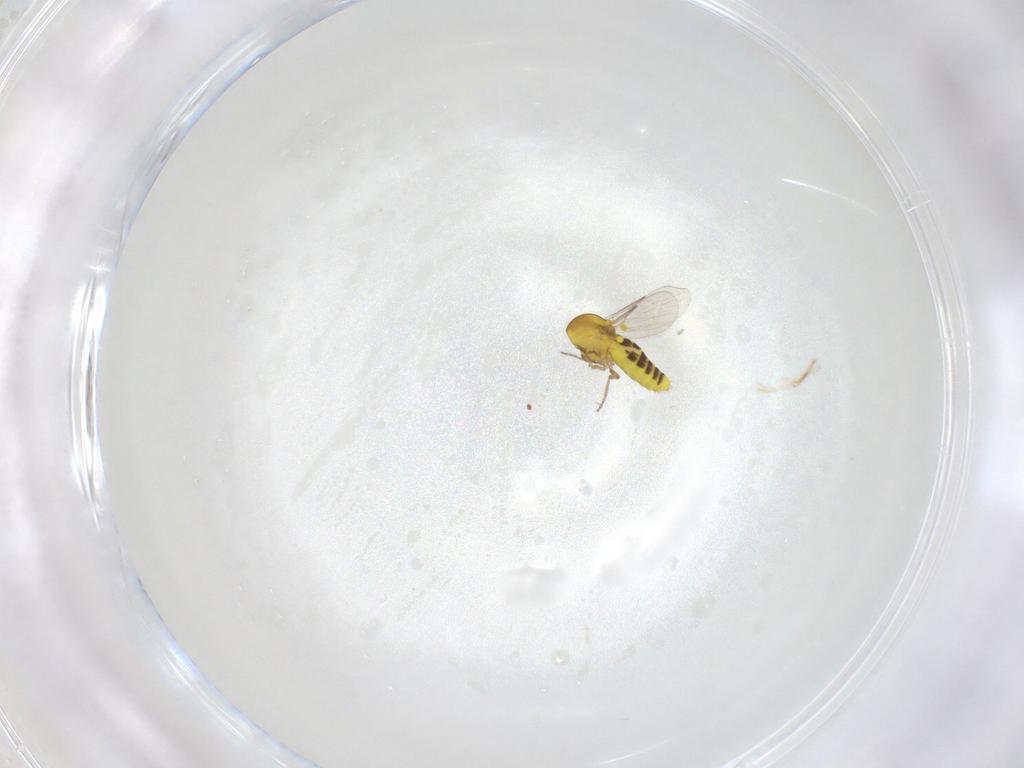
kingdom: Animalia
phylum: Arthropoda
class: Insecta
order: Diptera
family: Ceratopogonidae
